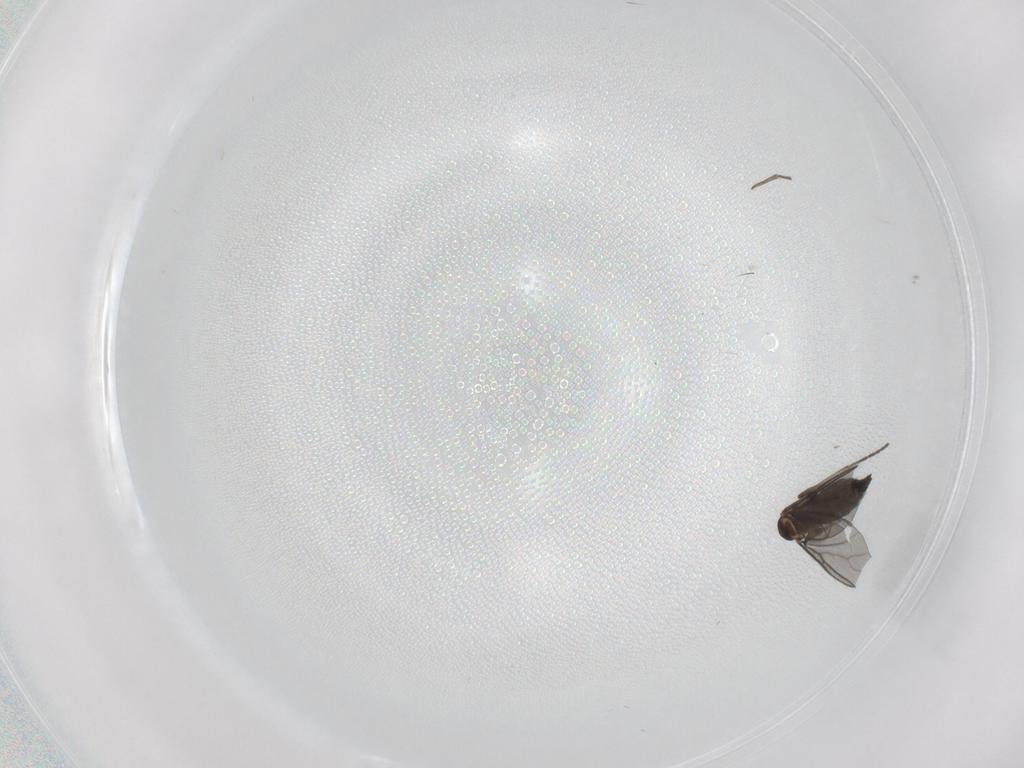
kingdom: Animalia
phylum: Arthropoda
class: Insecta
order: Diptera
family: Sciaridae
